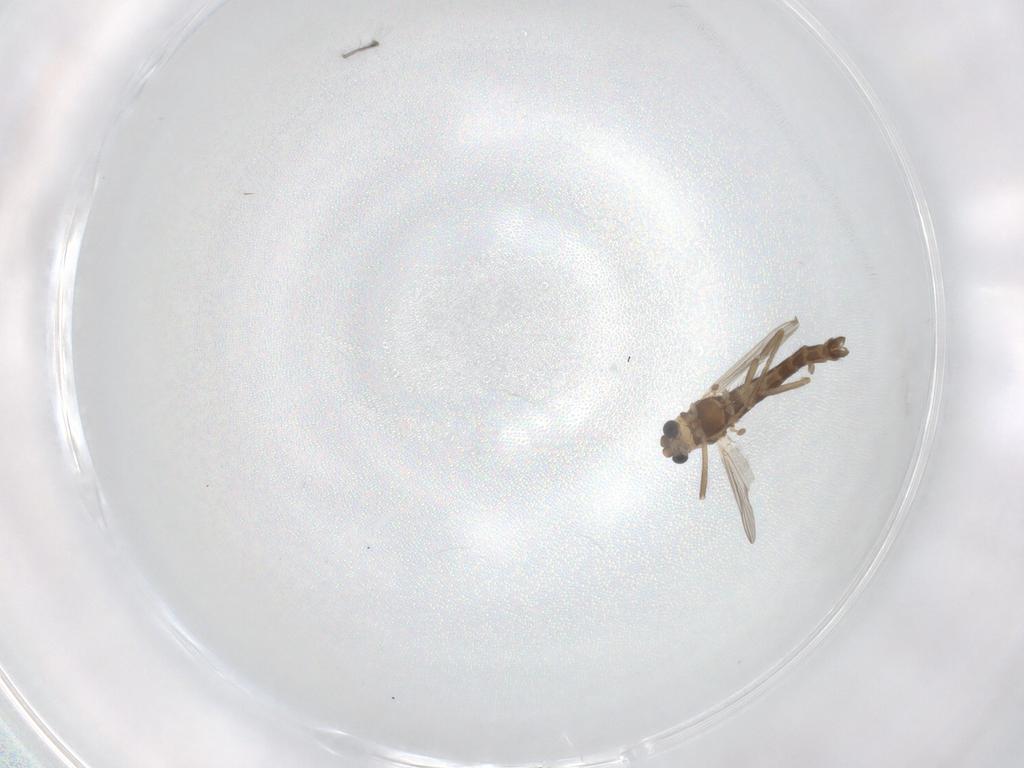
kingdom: Animalia
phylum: Arthropoda
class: Insecta
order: Diptera
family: Chironomidae
